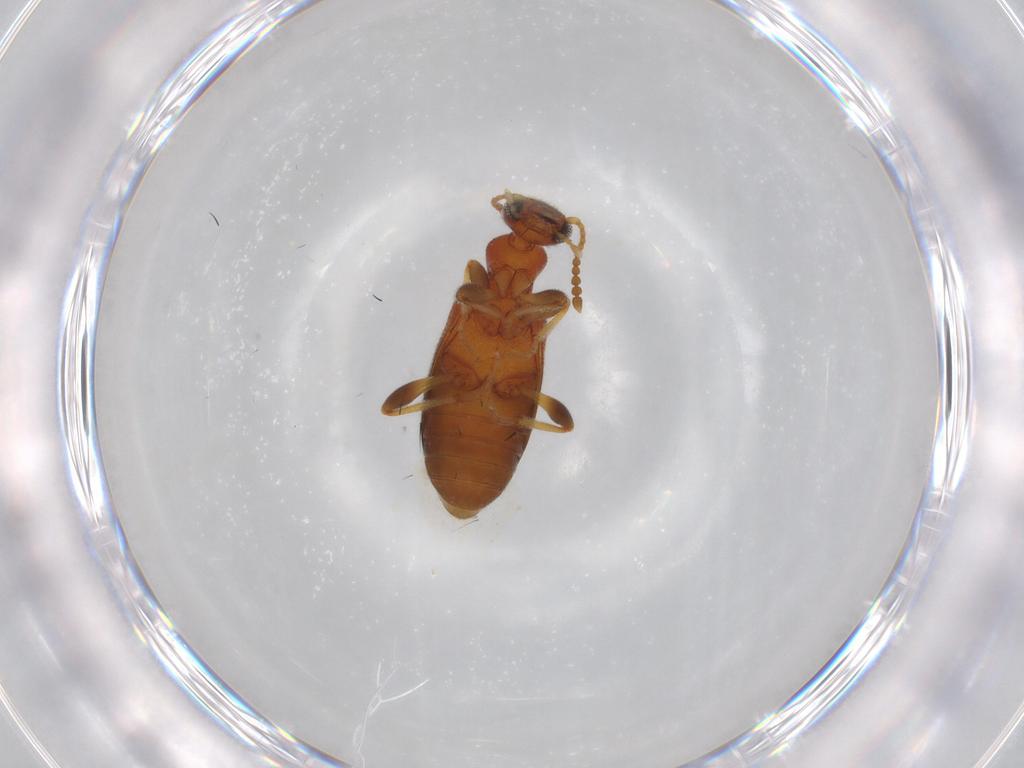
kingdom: Animalia
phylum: Arthropoda
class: Insecta
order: Coleoptera
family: Anthicidae
